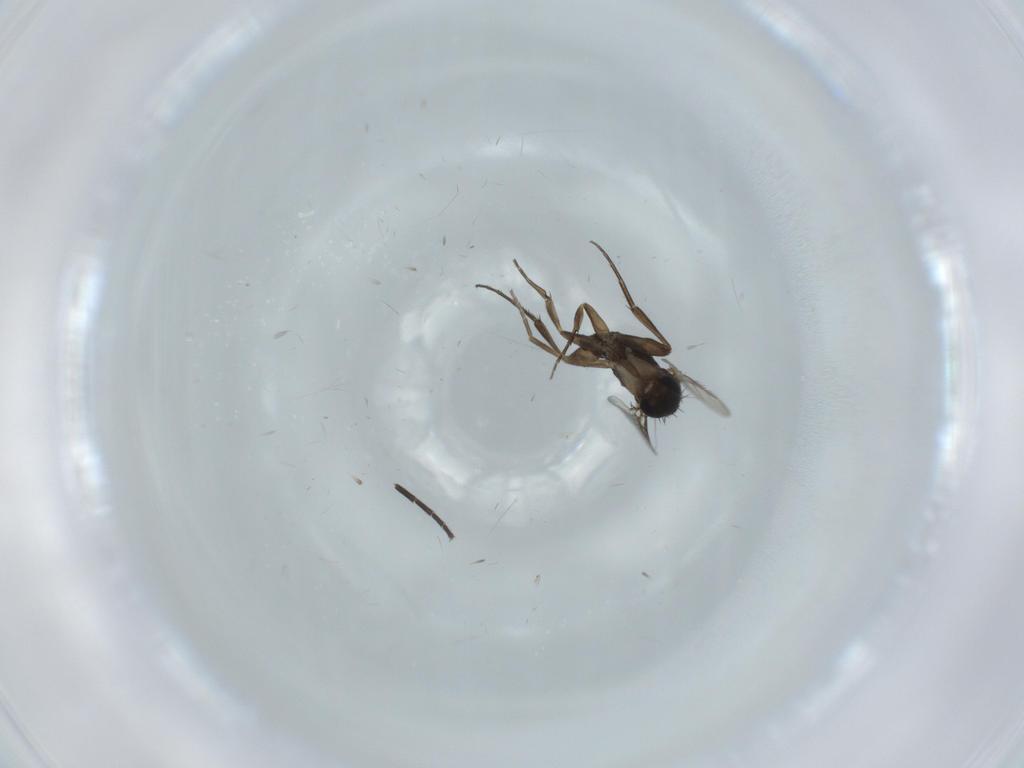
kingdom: Animalia
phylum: Arthropoda
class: Insecta
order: Diptera
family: Phoridae
